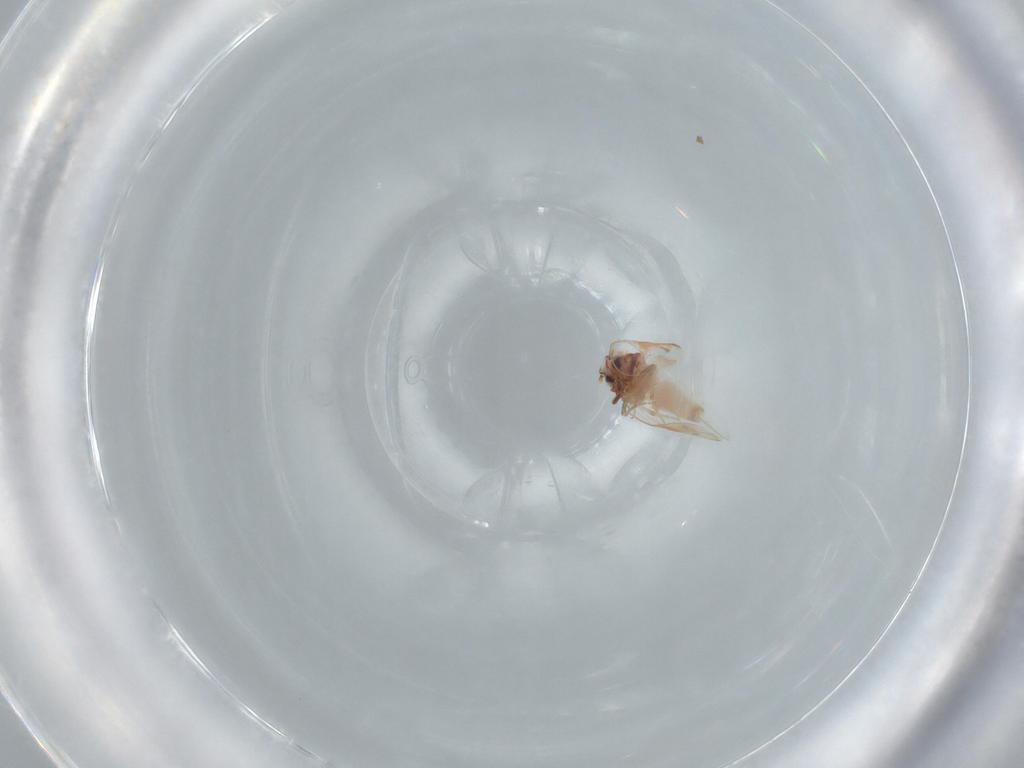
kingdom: Animalia
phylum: Arthropoda
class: Insecta
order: Hemiptera
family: Aleyrodidae
